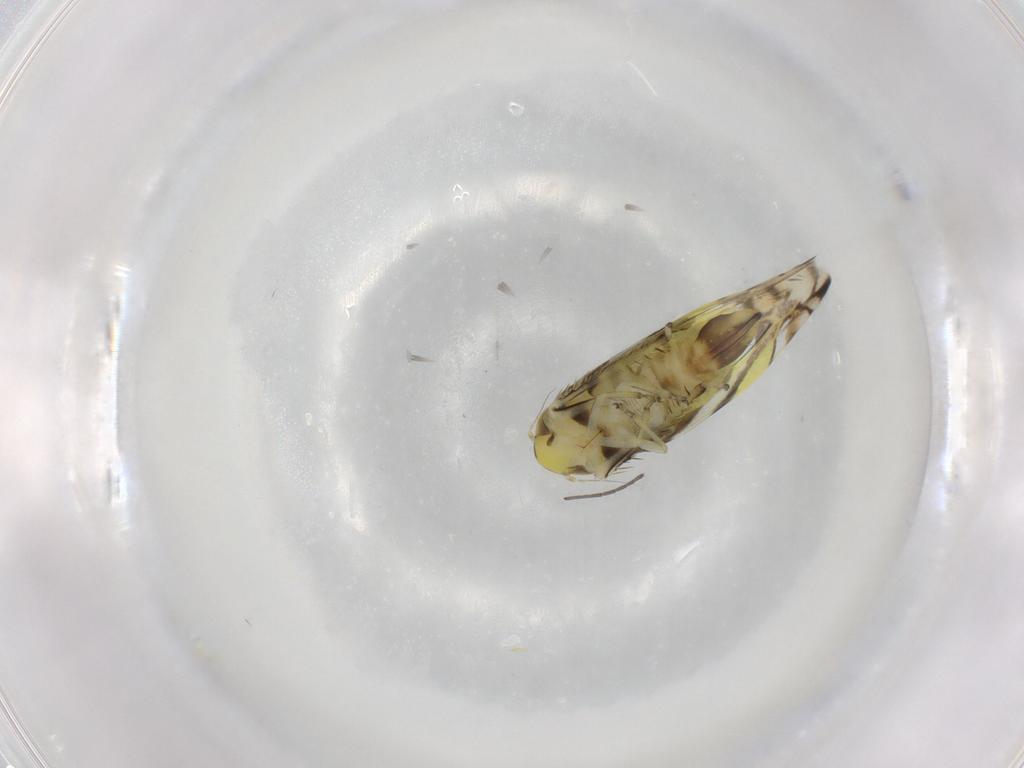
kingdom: Animalia
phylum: Arthropoda
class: Insecta
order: Hemiptera
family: Cicadellidae
